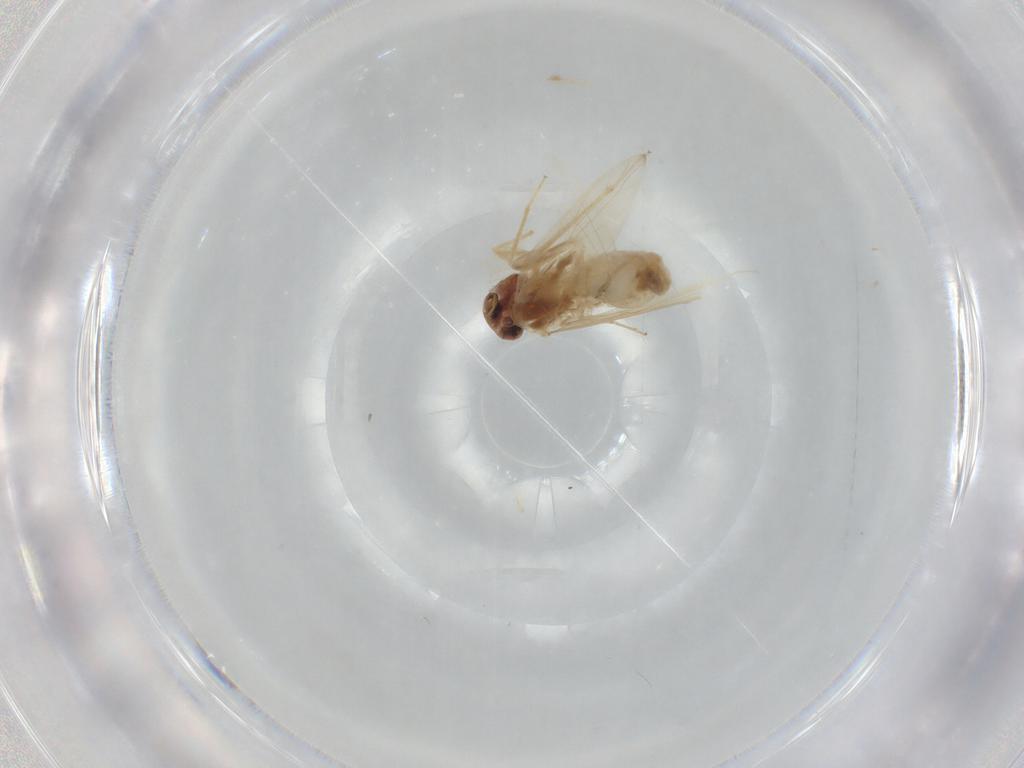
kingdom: Animalia
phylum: Arthropoda
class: Insecta
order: Psocodea
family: Lepidopsocidae
